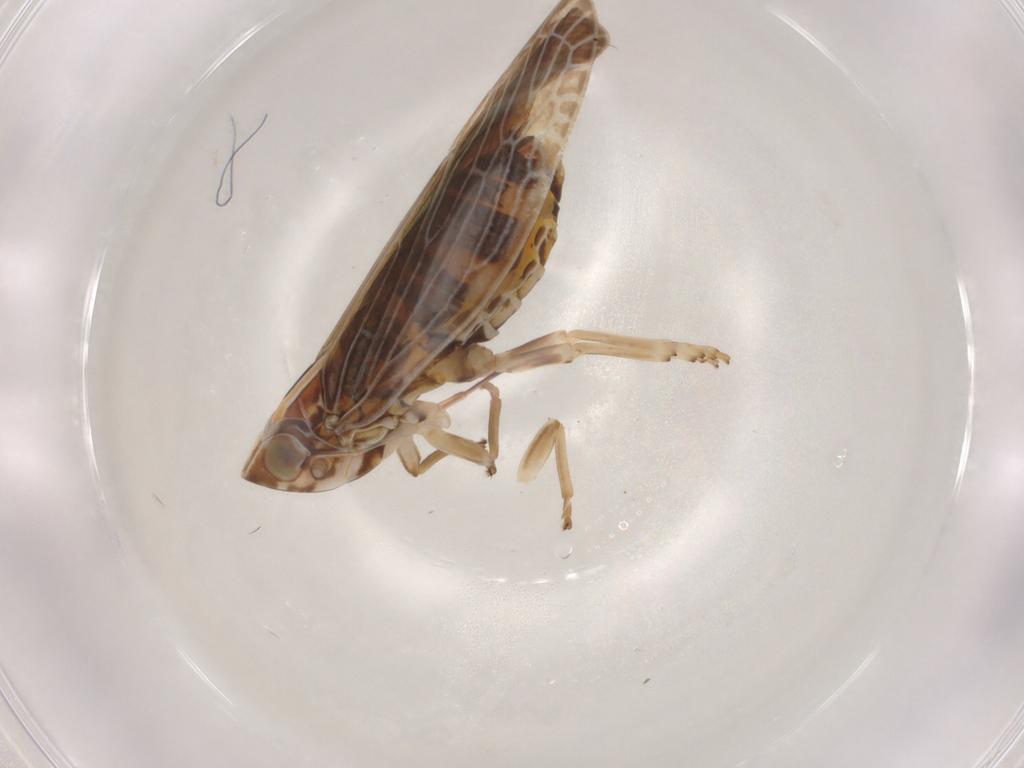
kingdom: Animalia
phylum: Arthropoda
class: Insecta
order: Hemiptera
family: Achilidae
